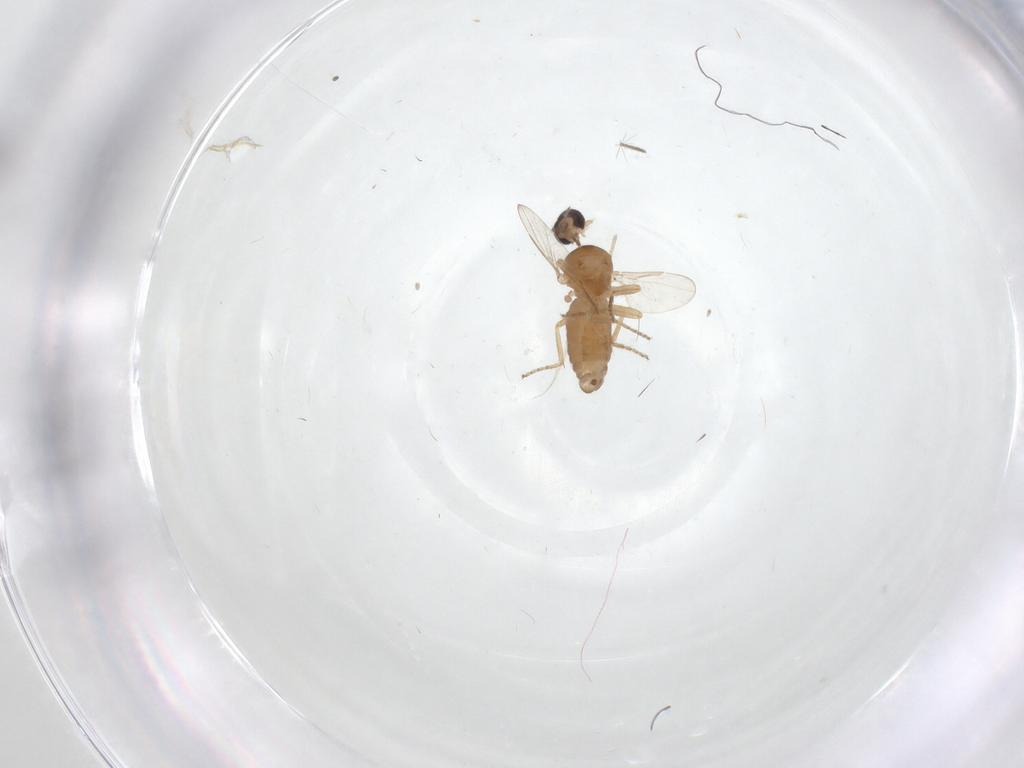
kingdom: Animalia
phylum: Arthropoda
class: Insecta
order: Diptera
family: Ceratopogonidae
